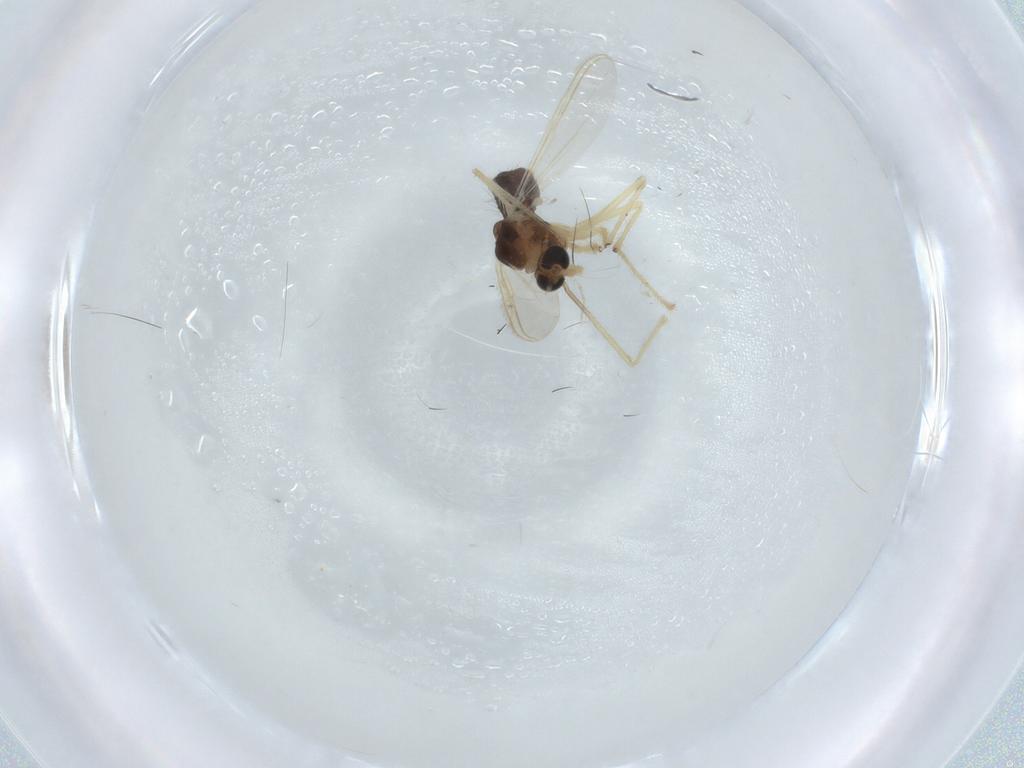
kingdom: Animalia
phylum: Arthropoda
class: Insecta
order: Diptera
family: Chironomidae
